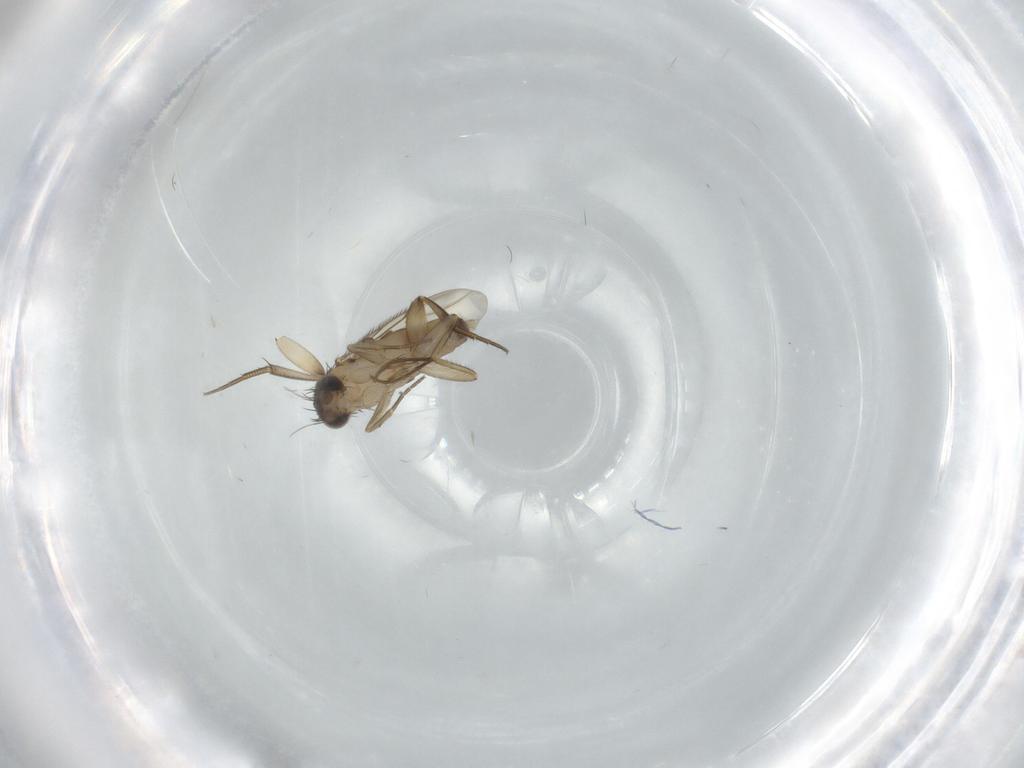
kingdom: Animalia
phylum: Arthropoda
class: Insecta
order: Diptera
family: Phoridae
